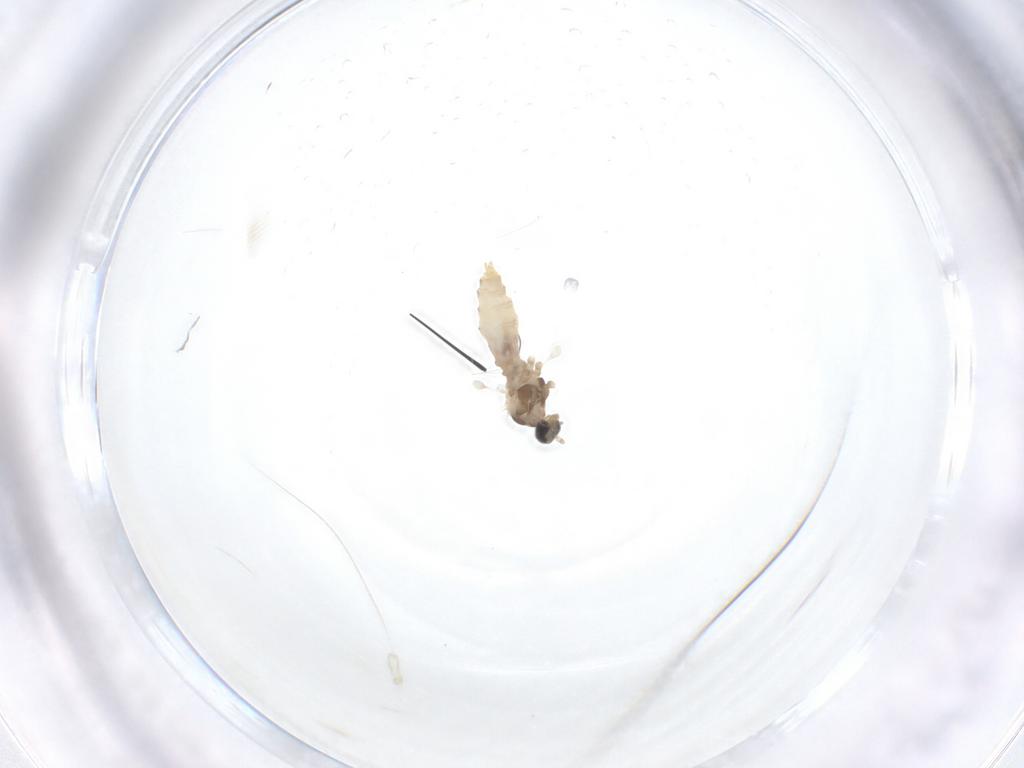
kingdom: Animalia
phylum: Arthropoda
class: Insecta
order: Diptera
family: Cecidomyiidae
